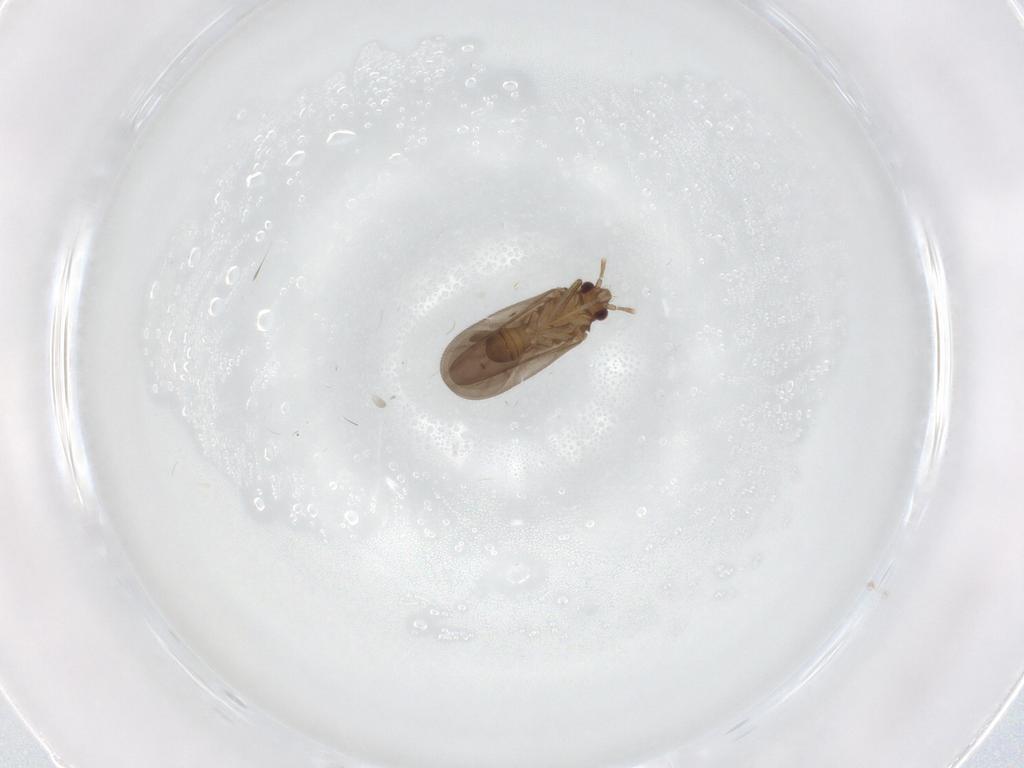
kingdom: Animalia
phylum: Arthropoda
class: Insecta
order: Hemiptera
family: Ceratocombidae
